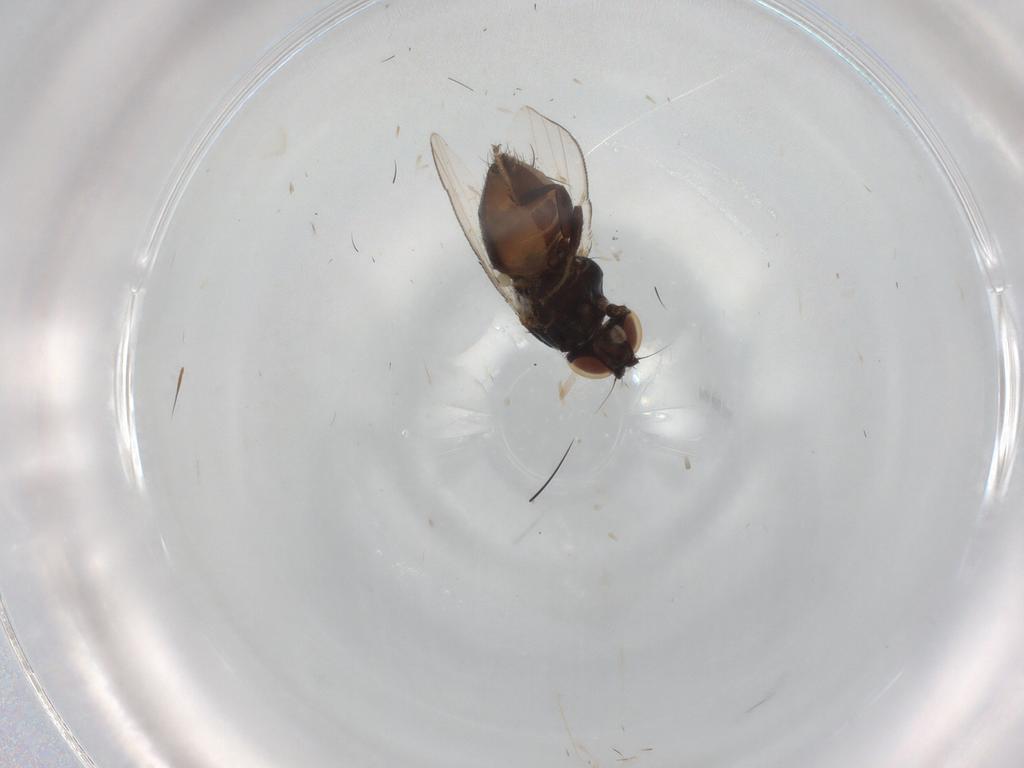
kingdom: Animalia
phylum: Arthropoda
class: Insecta
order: Diptera
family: Milichiidae
